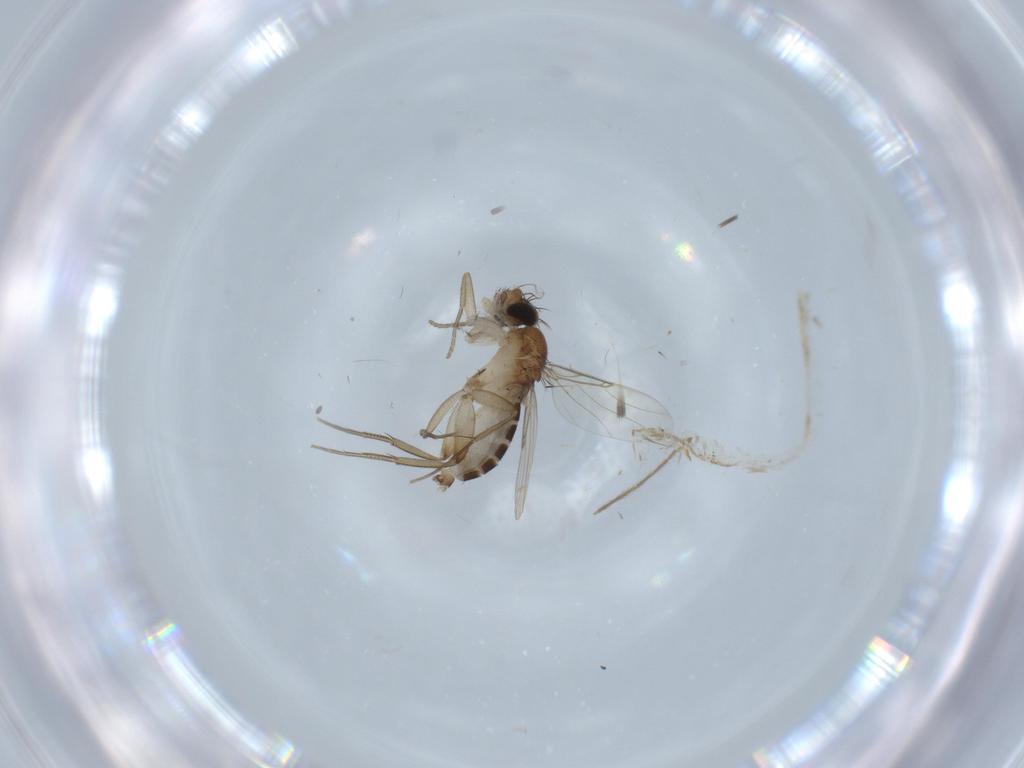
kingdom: Animalia
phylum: Arthropoda
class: Insecta
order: Diptera
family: Phoridae
